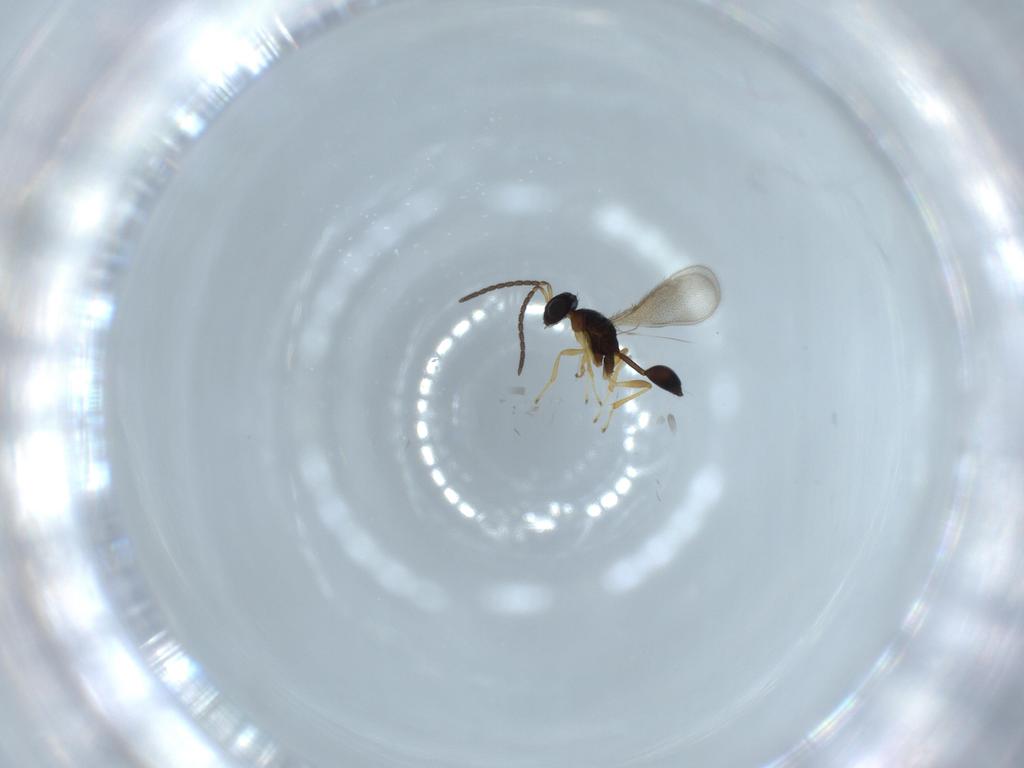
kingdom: Animalia
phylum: Arthropoda
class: Insecta
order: Hymenoptera
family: Diparidae
